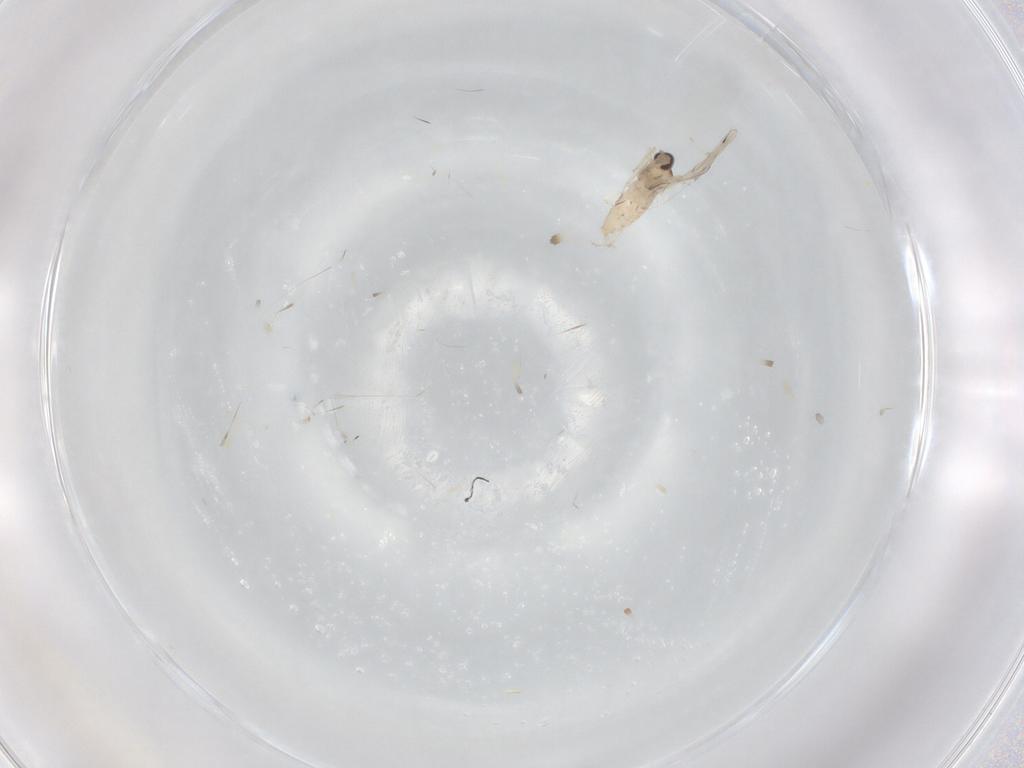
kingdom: Animalia
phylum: Arthropoda
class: Insecta
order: Diptera
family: Cecidomyiidae
